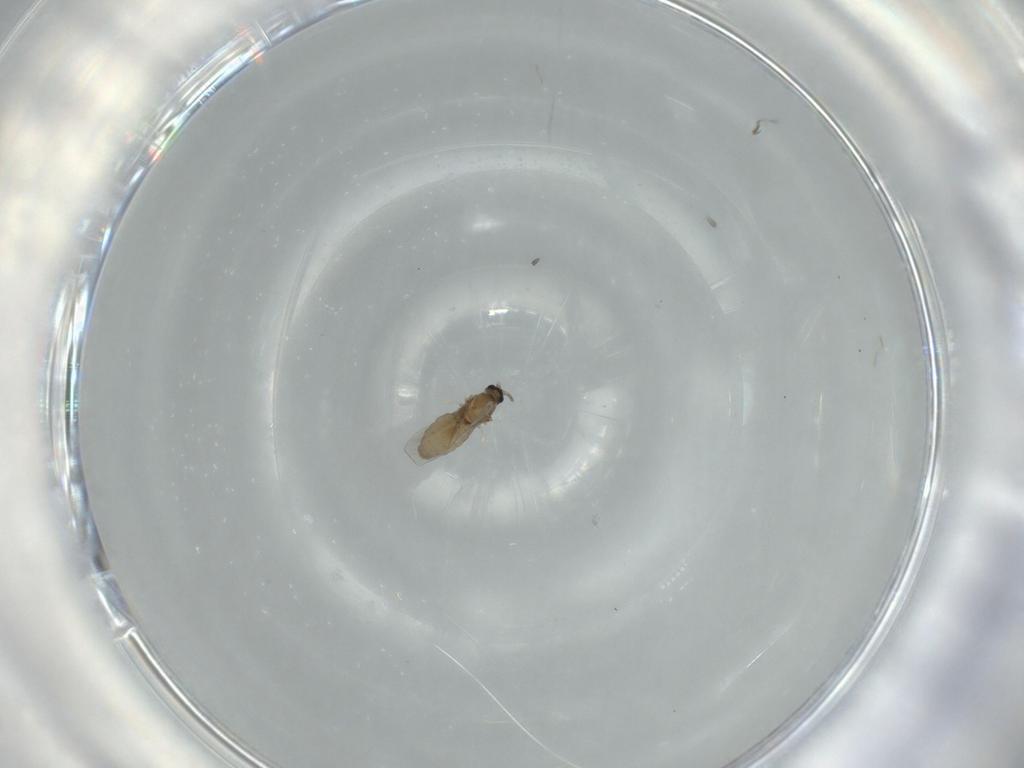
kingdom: Animalia
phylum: Arthropoda
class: Insecta
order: Diptera
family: Cecidomyiidae
